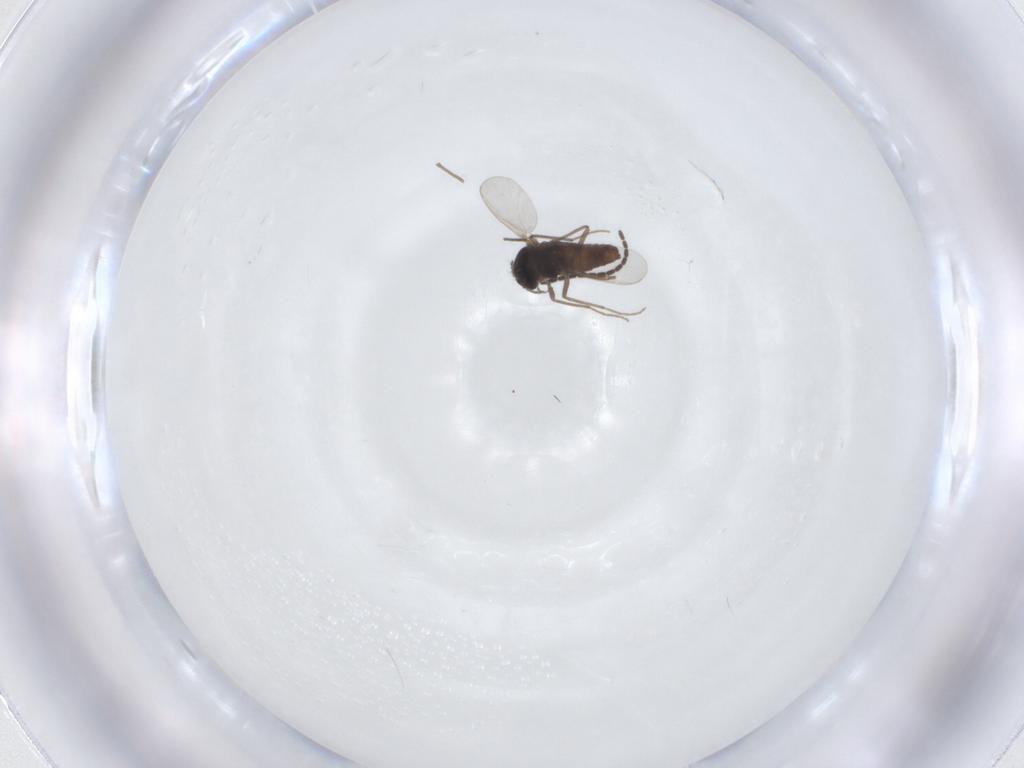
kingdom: Animalia
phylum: Arthropoda
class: Insecta
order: Diptera
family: Chironomidae
